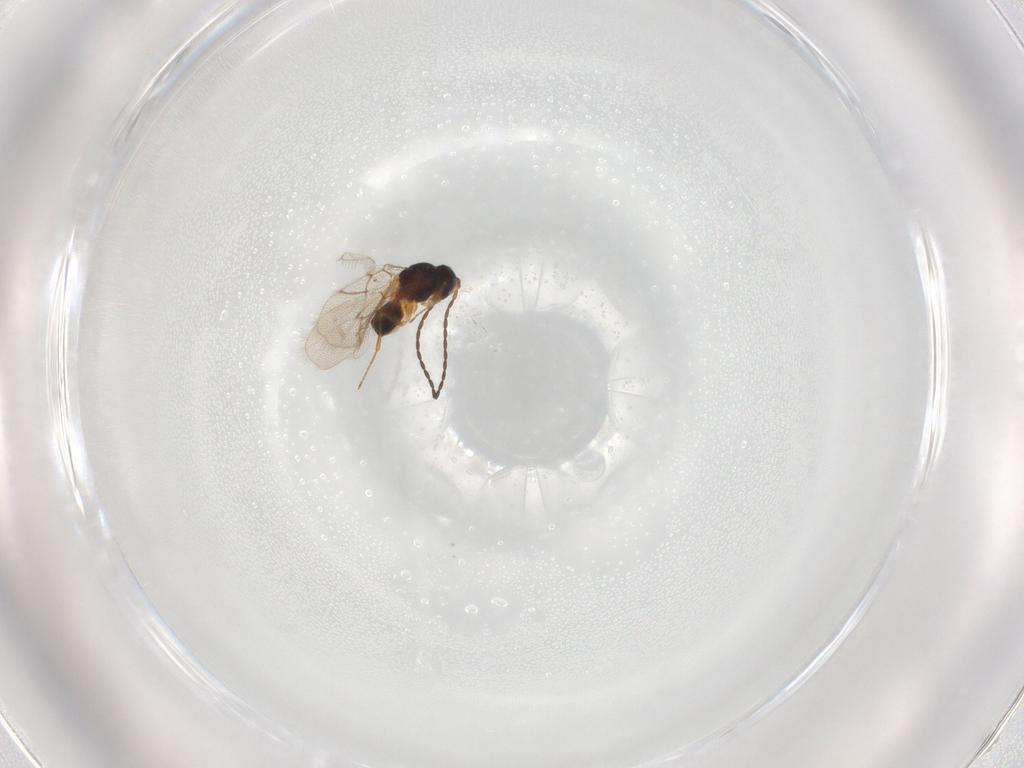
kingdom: Animalia
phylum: Arthropoda
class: Insecta
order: Hymenoptera
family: Figitidae
